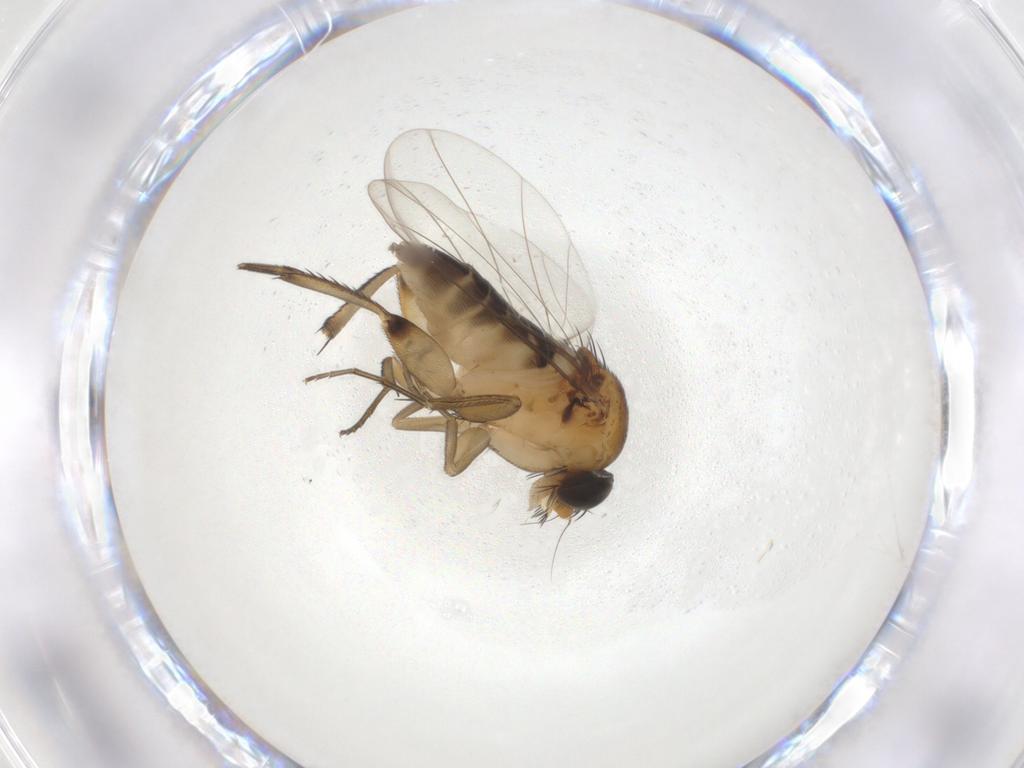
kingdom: Animalia
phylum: Arthropoda
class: Insecta
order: Diptera
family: Phoridae
